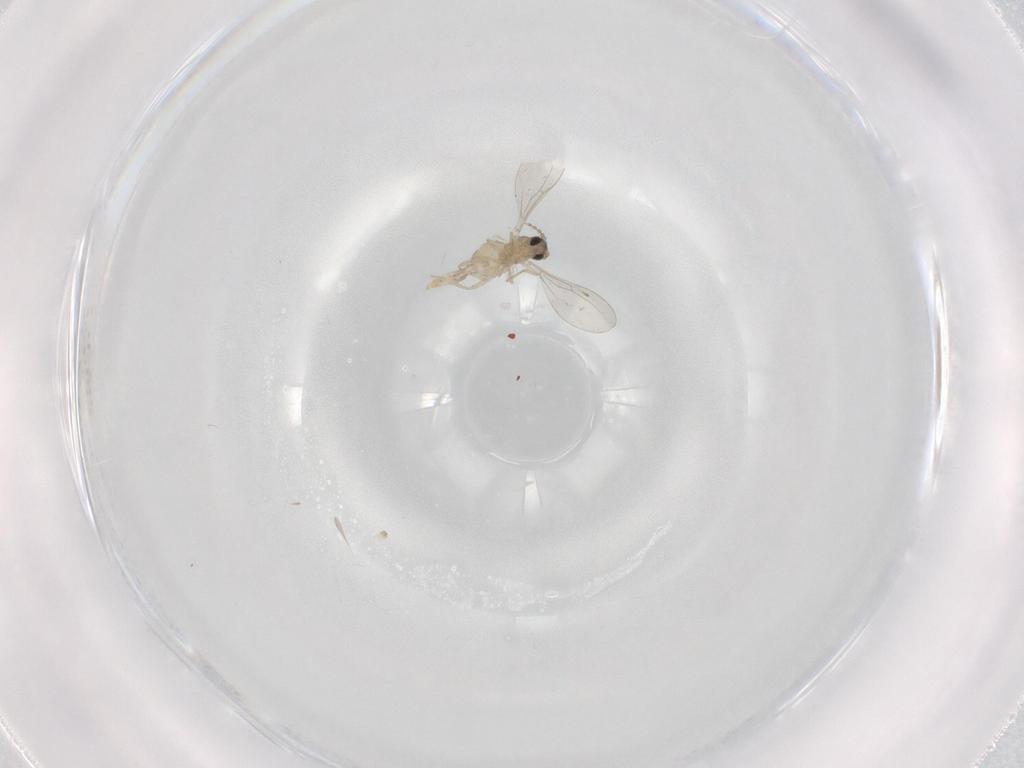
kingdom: Animalia
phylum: Arthropoda
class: Insecta
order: Diptera
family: Cecidomyiidae
